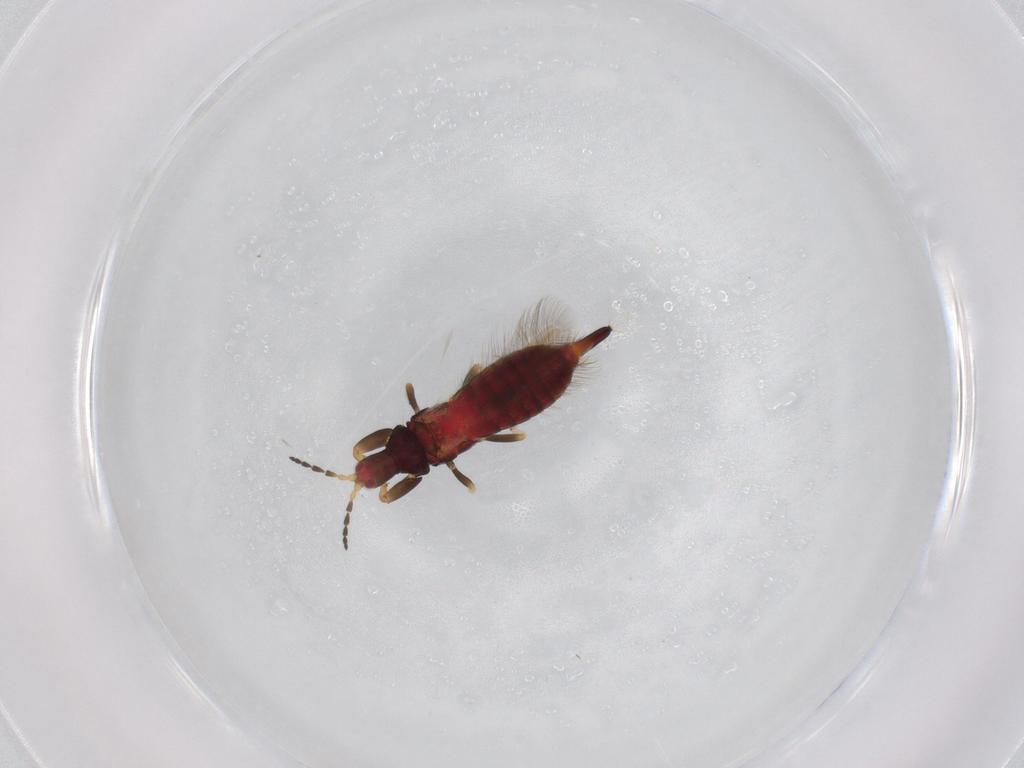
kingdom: Animalia
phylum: Arthropoda
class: Insecta
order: Thysanoptera
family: Phlaeothripidae
